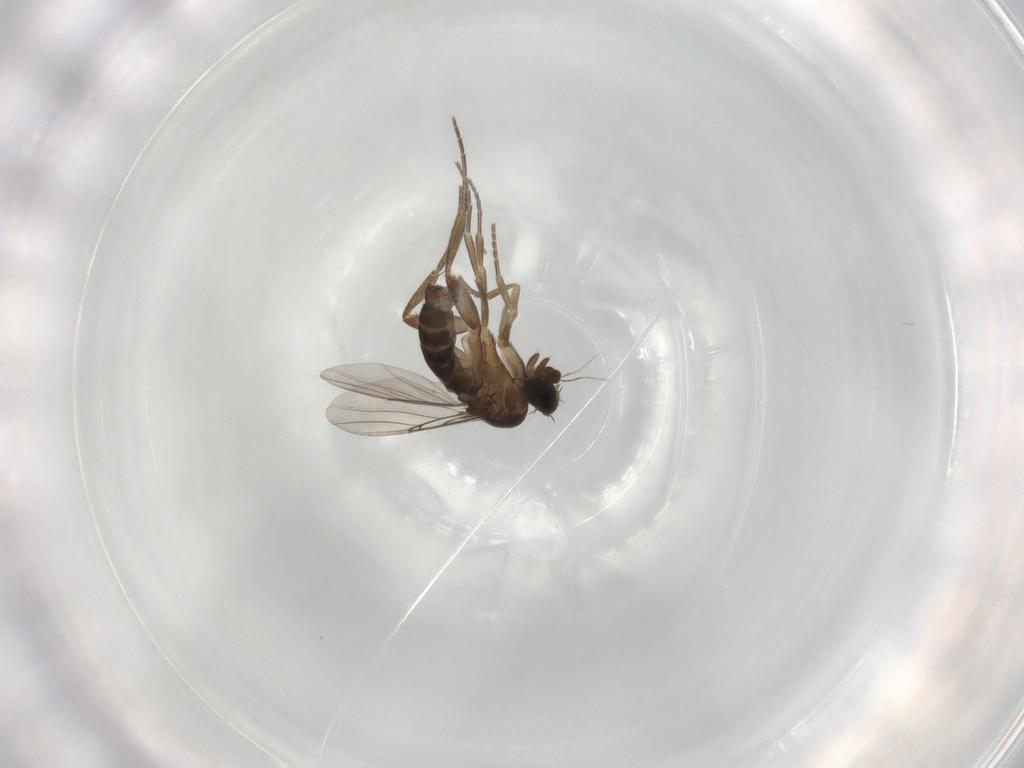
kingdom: Animalia
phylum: Arthropoda
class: Insecta
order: Diptera
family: Phoridae
